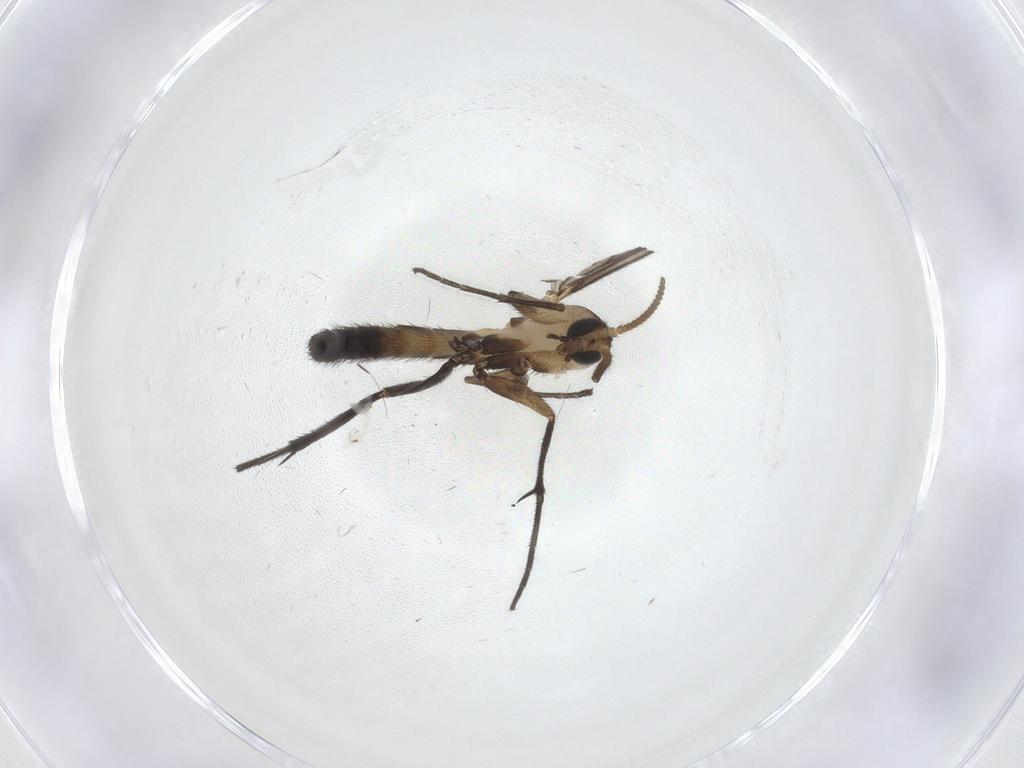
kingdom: Animalia
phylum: Arthropoda
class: Insecta
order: Diptera
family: Mycetophilidae
